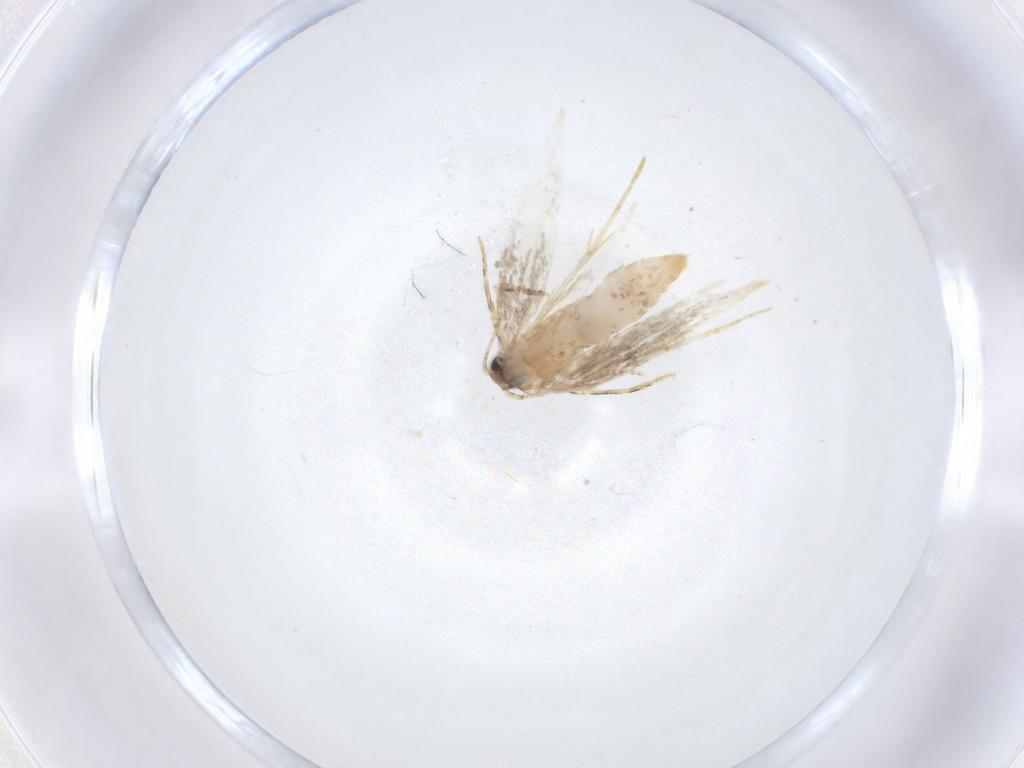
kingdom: Animalia
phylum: Arthropoda
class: Insecta
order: Lepidoptera
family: Tineidae
